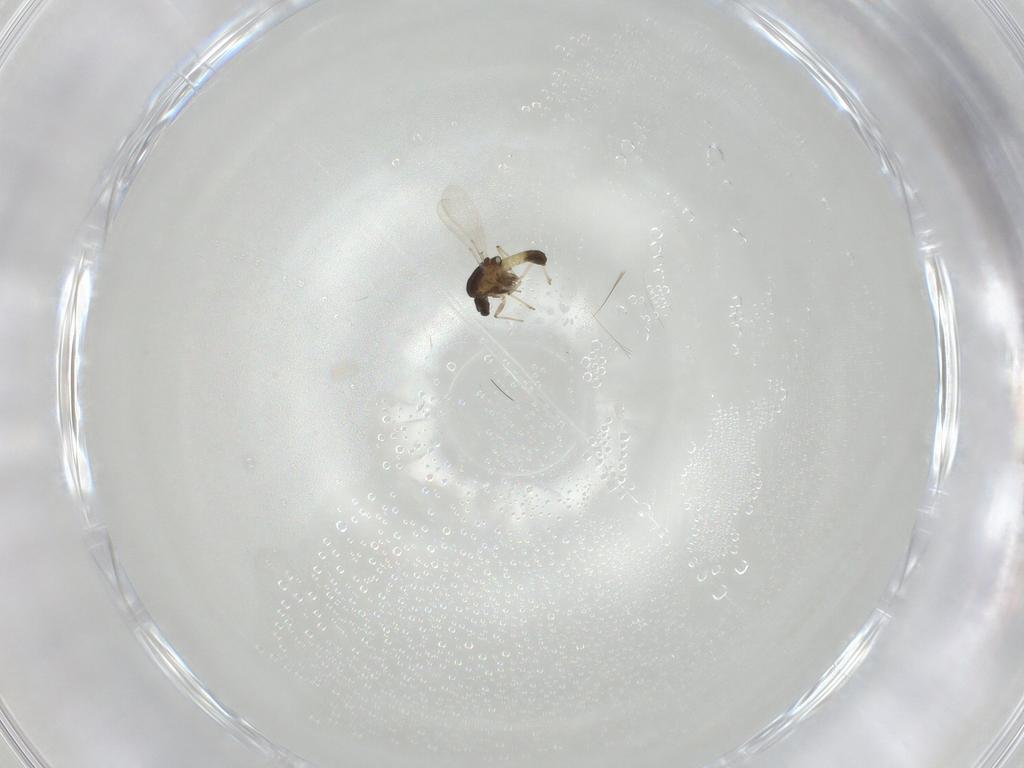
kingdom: Animalia
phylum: Arthropoda
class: Insecta
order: Diptera
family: Chironomidae
